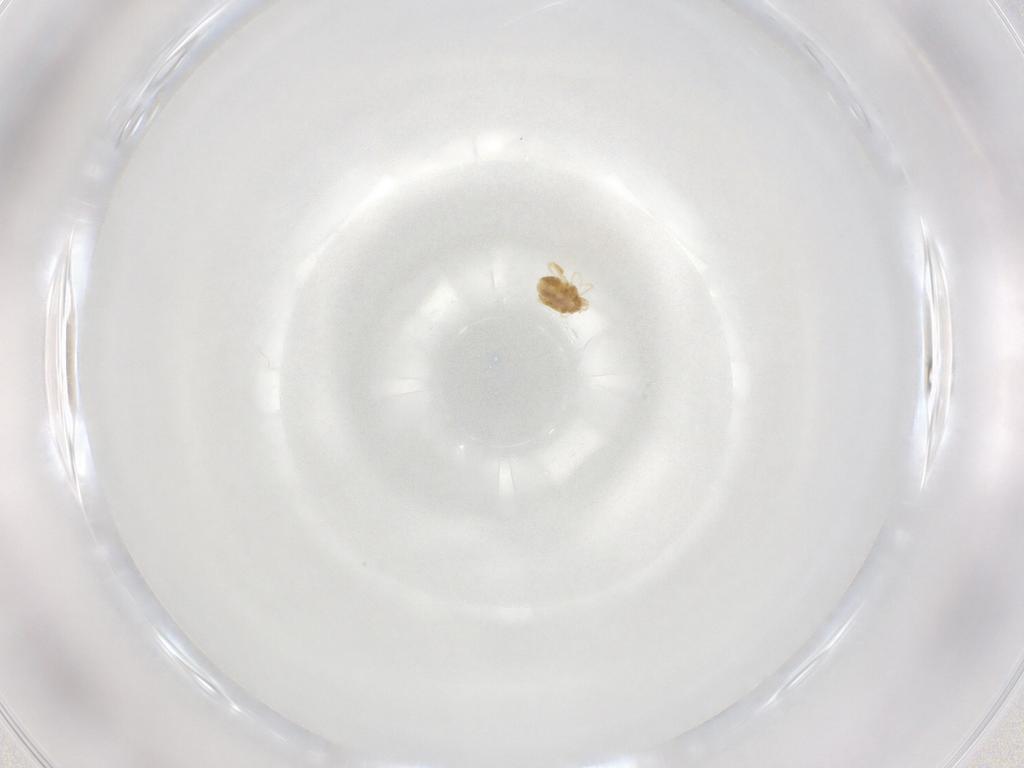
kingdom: Animalia
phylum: Arthropoda
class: Arachnida
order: Trombidiformes
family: Eupodidae
